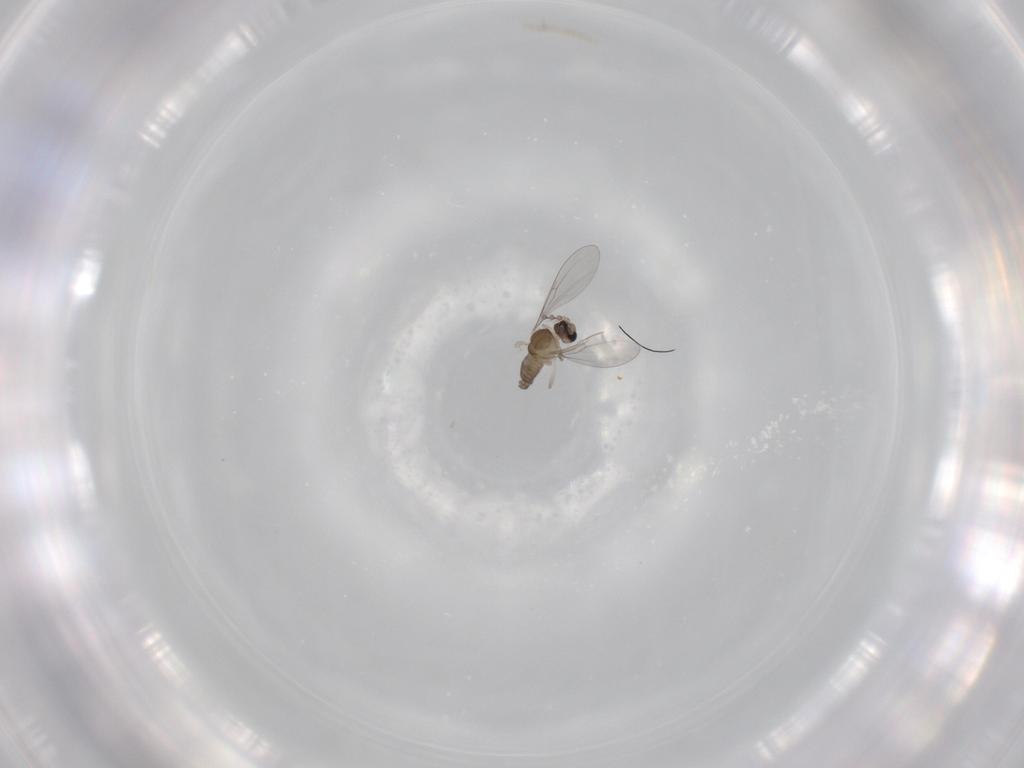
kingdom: Animalia
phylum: Arthropoda
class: Insecta
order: Diptera
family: Cecidomyiidae
